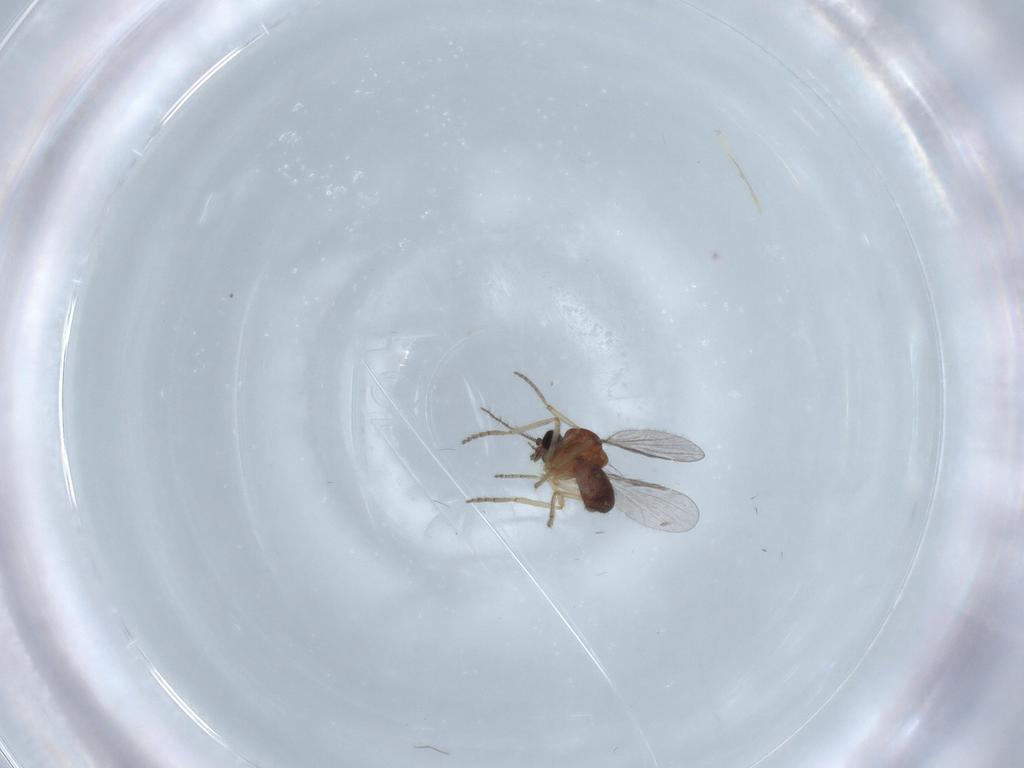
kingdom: Animalia
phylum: Arthropoda
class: Insecta
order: Diptera
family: Ceratopogonidae
